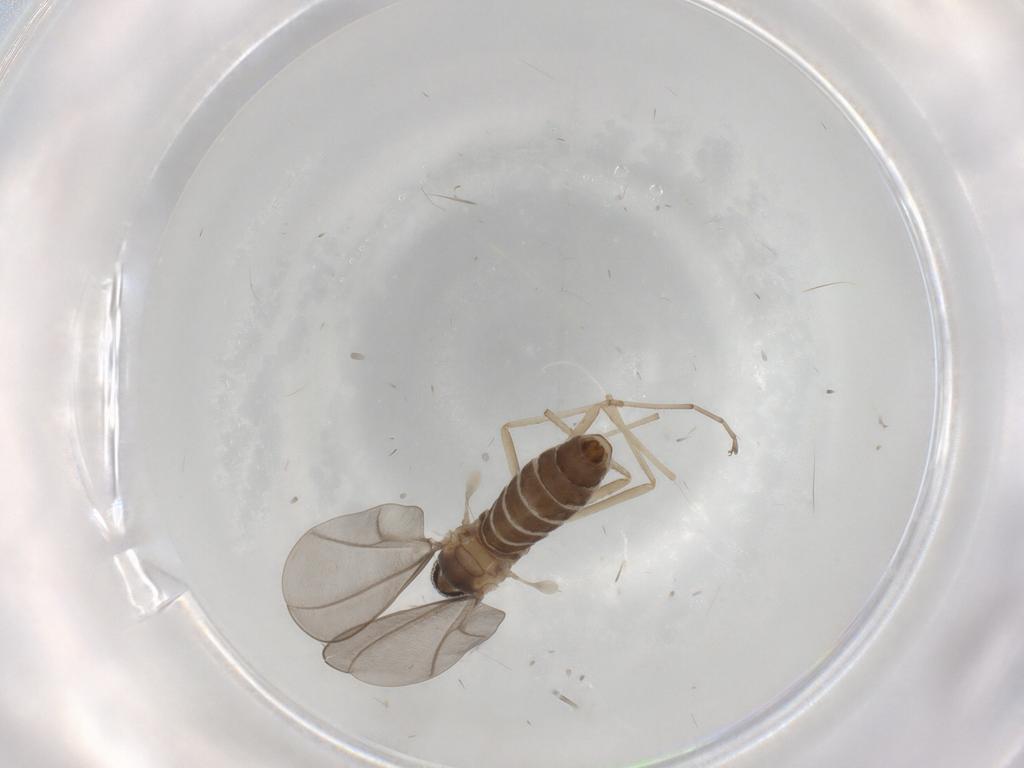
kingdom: Animalia
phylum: Arthropoda
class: Insecta
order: Diptera
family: Cecidomyiidae
